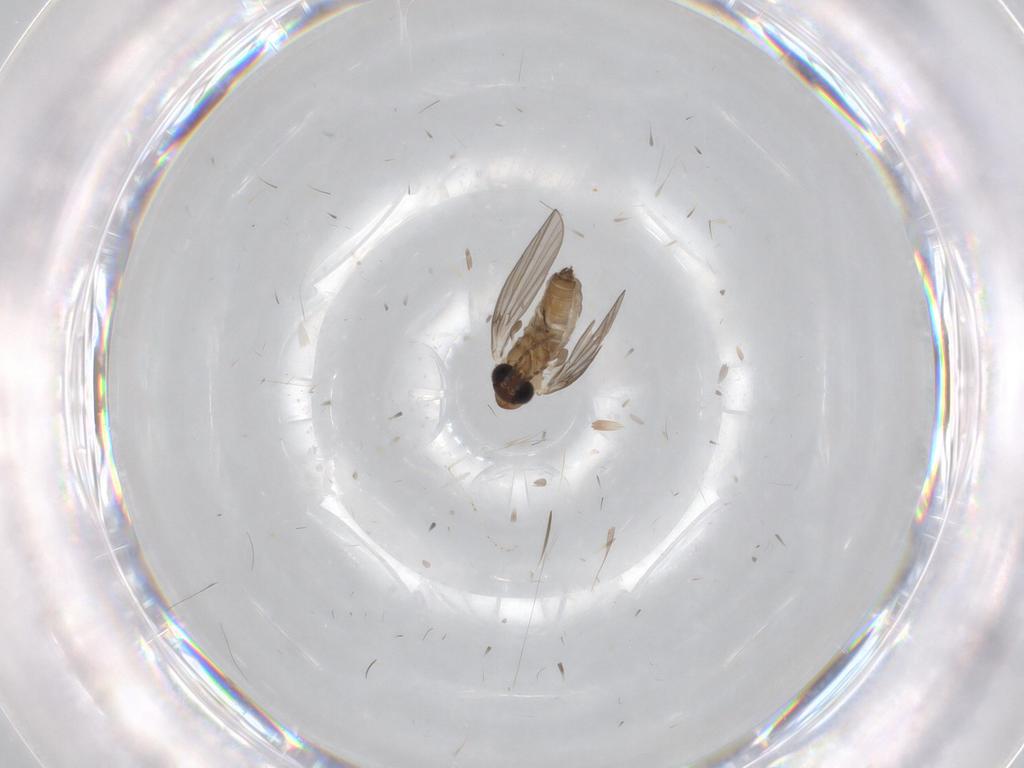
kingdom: Animalia
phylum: Arthropoda
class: Insecta
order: Diptera
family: Cecidomyiidae
